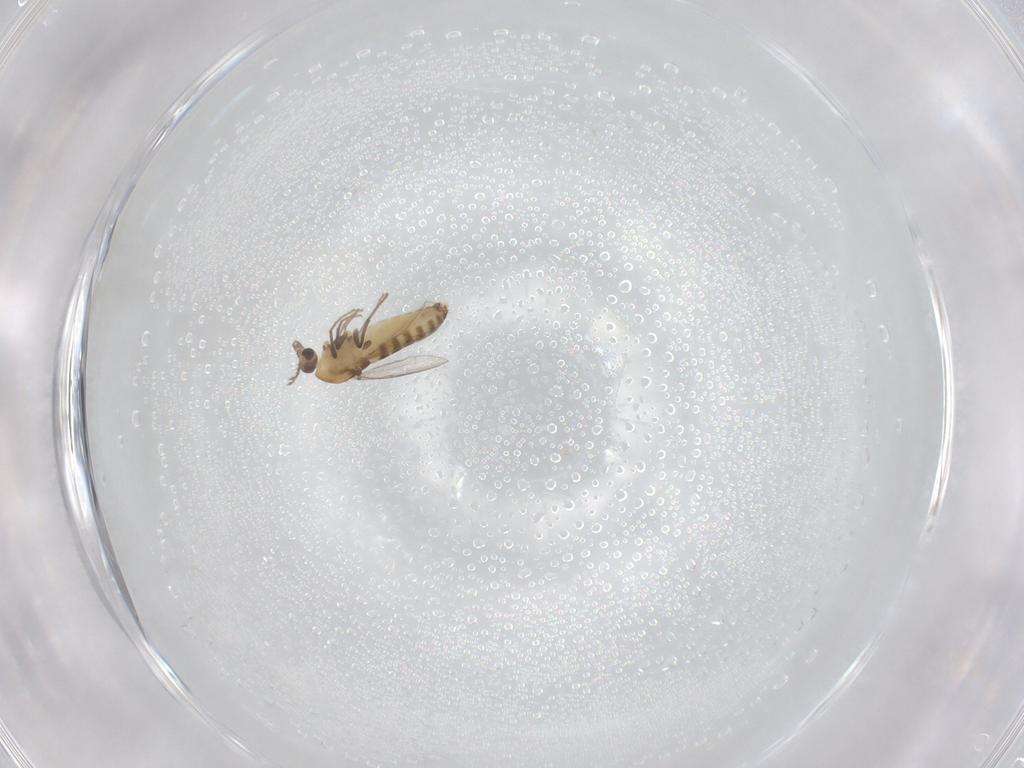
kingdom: Animalia
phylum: Arthropoda
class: Insecta
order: Diptera
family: Chironomidae
